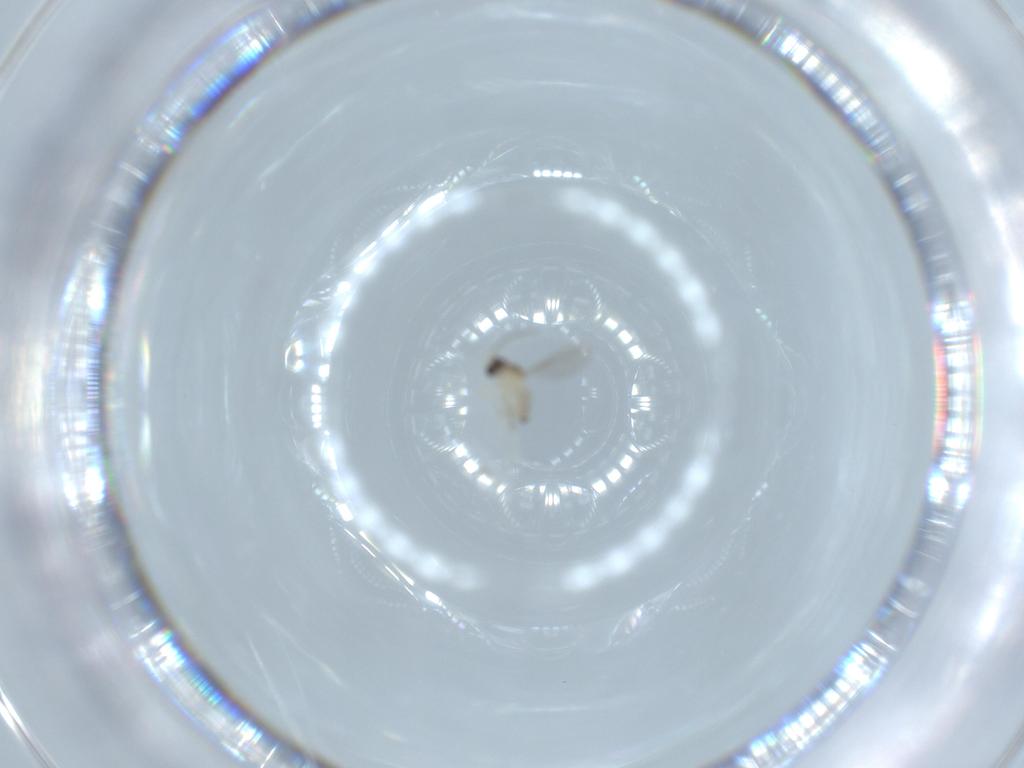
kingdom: Animalia
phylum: Arthropoda
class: Insecta
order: Diptera
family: Cecidomyiidae
